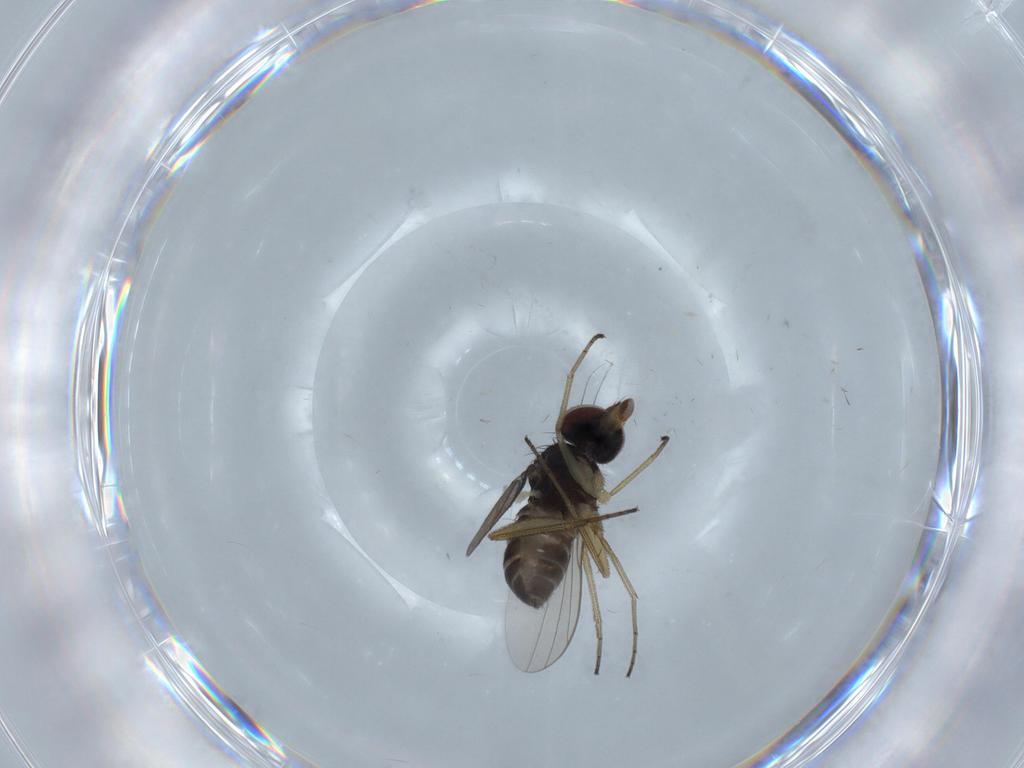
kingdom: Animalia
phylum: Arthropoda
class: Insecta
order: Diptera
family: Dolichopodidae
